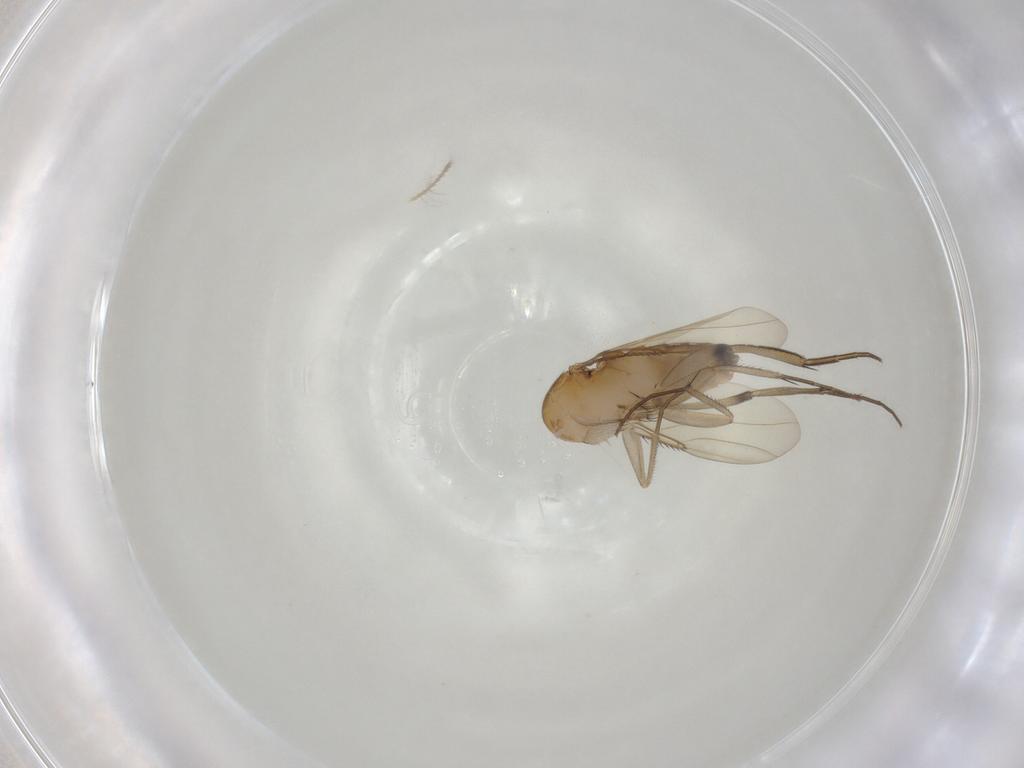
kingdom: Animalia
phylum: Arthropoda
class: Insecta
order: Diptera
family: Phoridae
